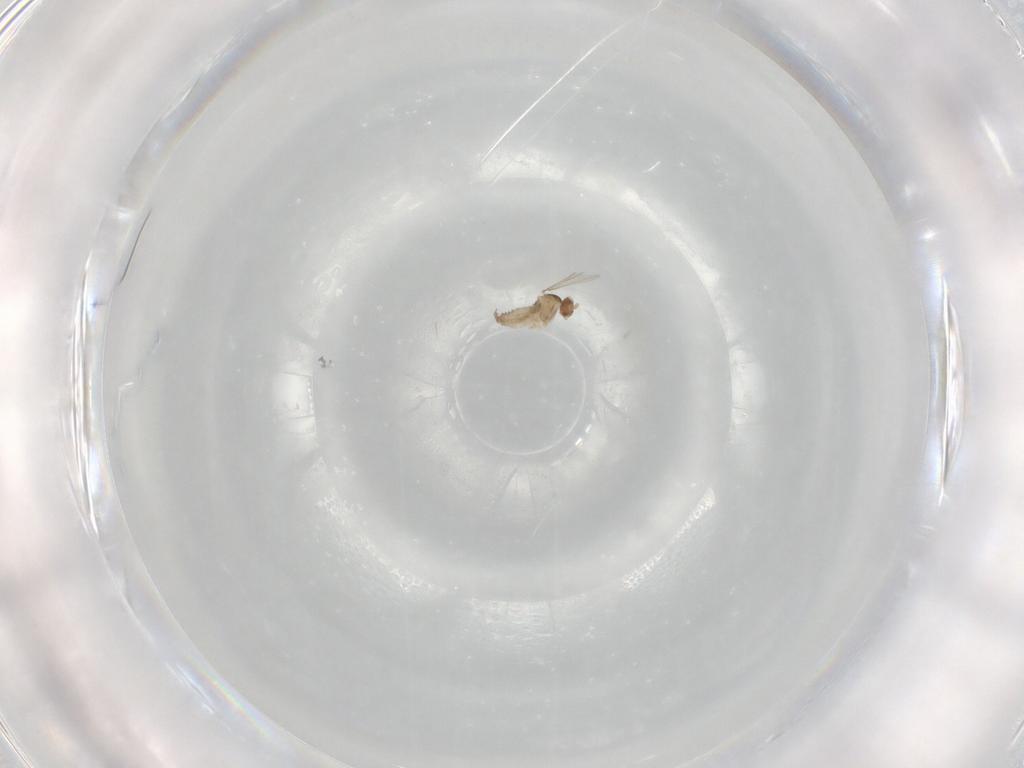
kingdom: Animalia
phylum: Arthropoda
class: Insecta
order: Diptera
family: Cecidomyiidae
